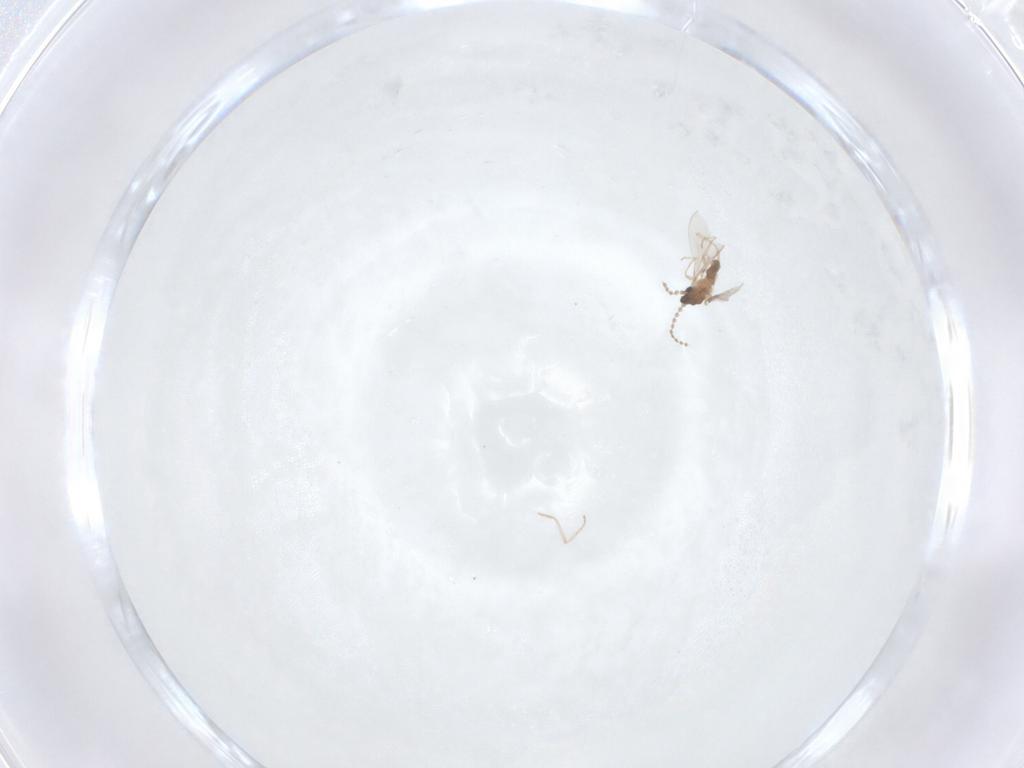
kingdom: Animalia
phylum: Arthropoda
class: Insecta
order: Diptera
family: Cecidomyiidae
